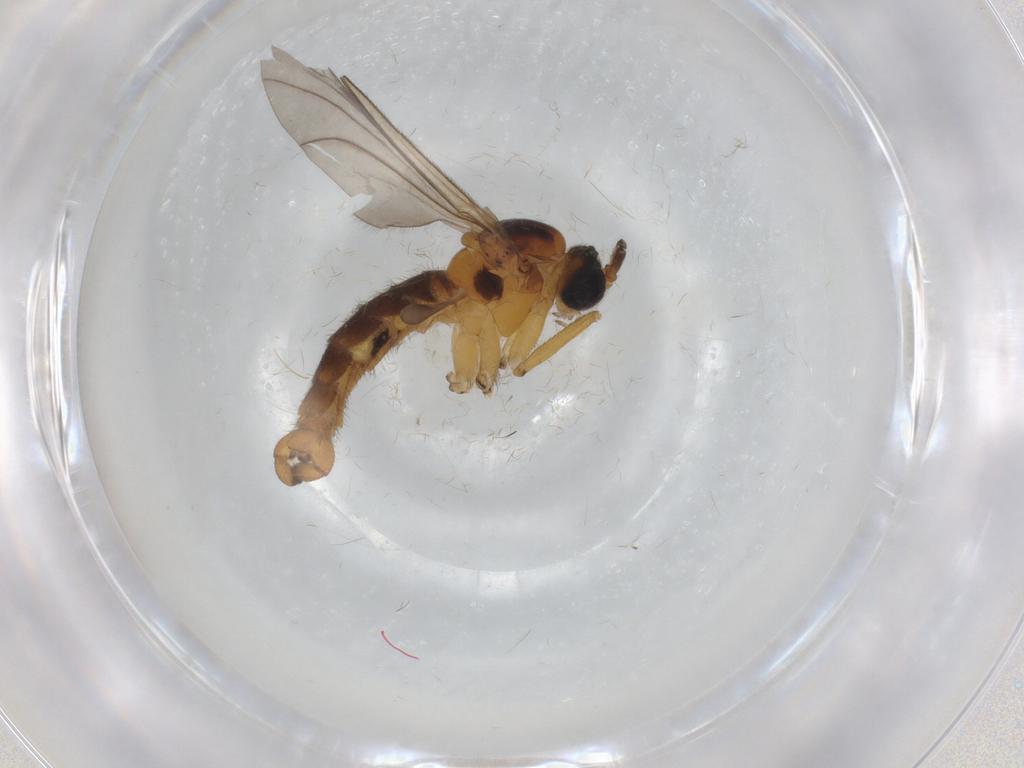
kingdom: Animalia
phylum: Arthropoda
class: Insecta
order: Diptera
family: Sciaridae
